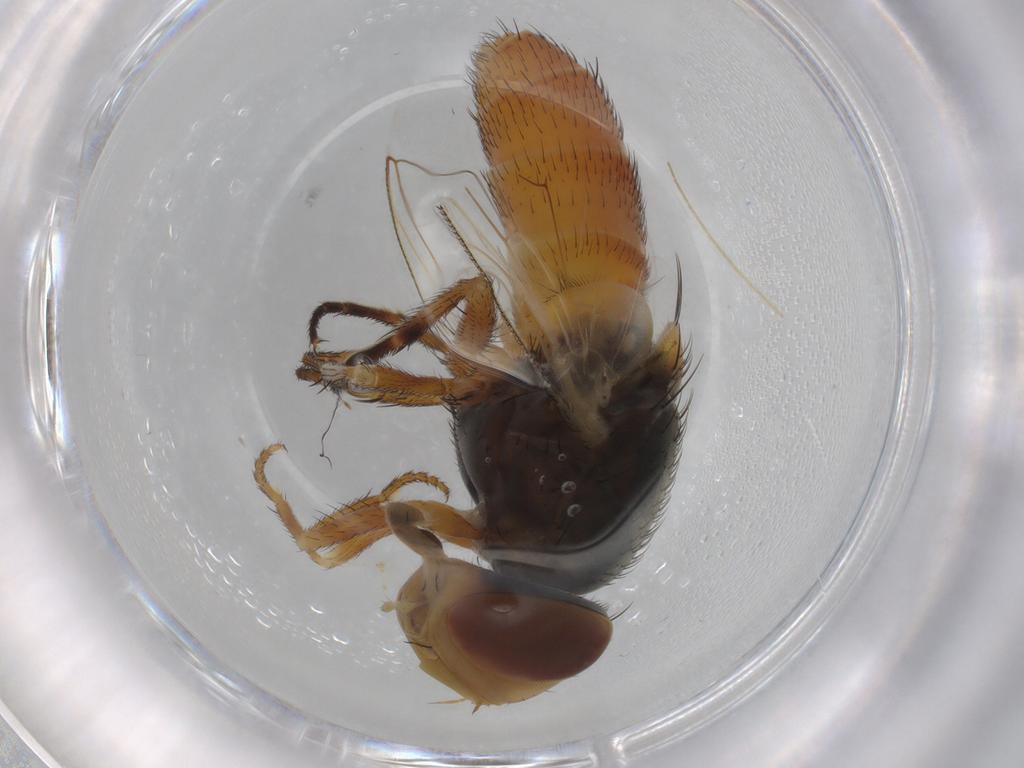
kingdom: Animalia
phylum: Arthropoda
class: Insecta
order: Diptera
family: Sarcophagidae
